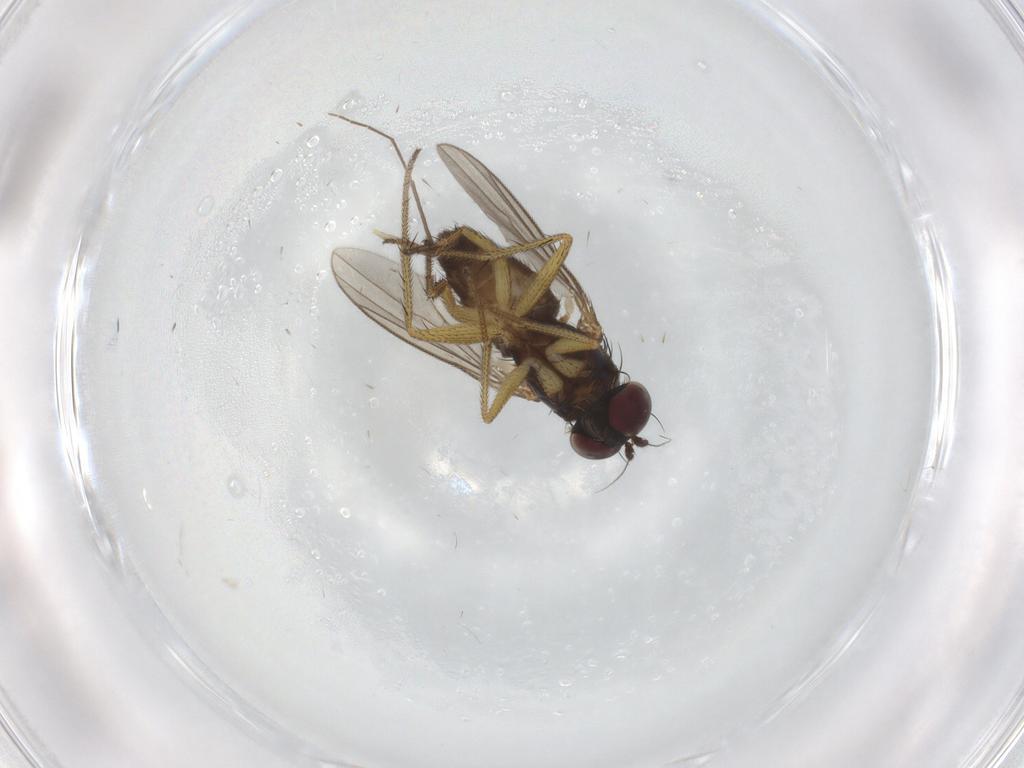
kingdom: Animalia
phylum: Arthropoda
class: Insecta
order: Diptera
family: Dolichopodidae
